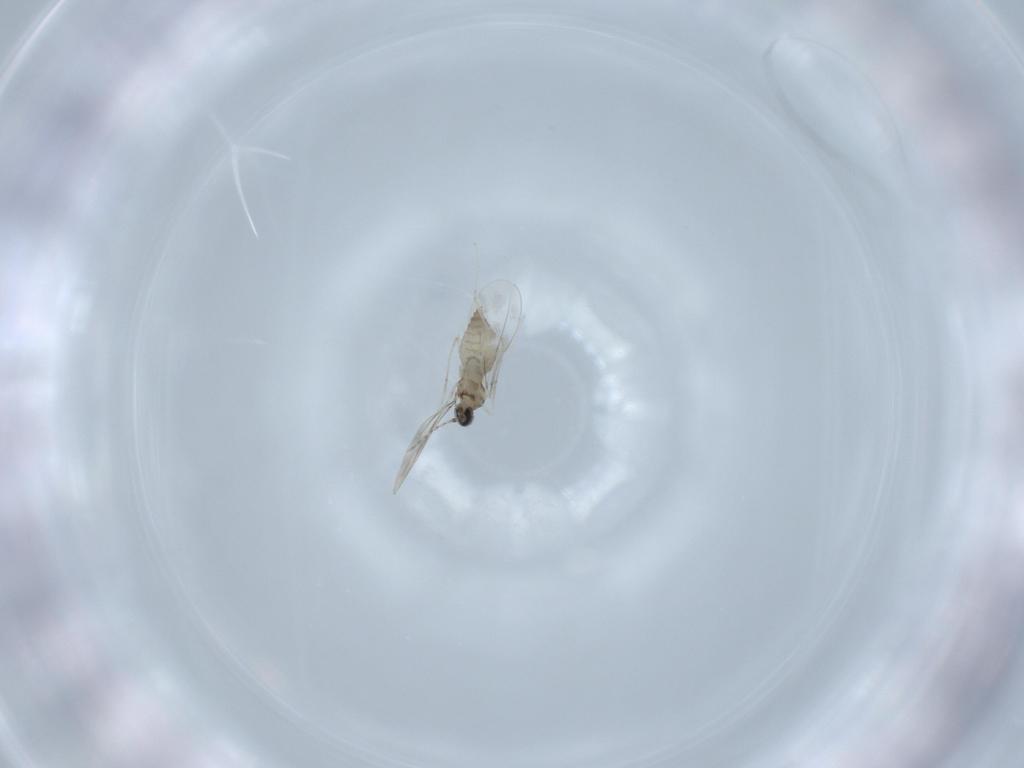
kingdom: Animalia
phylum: Arthropoda
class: Insecta
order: Diptera
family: Cecidomyiidae
